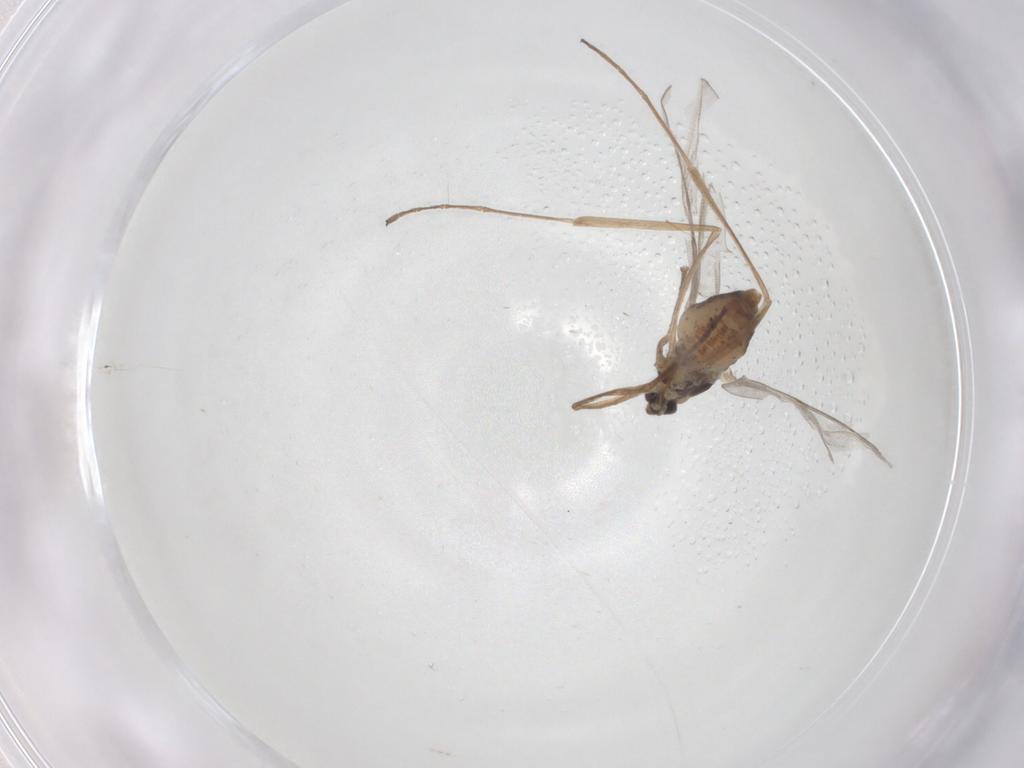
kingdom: Animalia
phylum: Arthropoda
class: Insecta
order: Diptera
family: Cecidomyiidae
